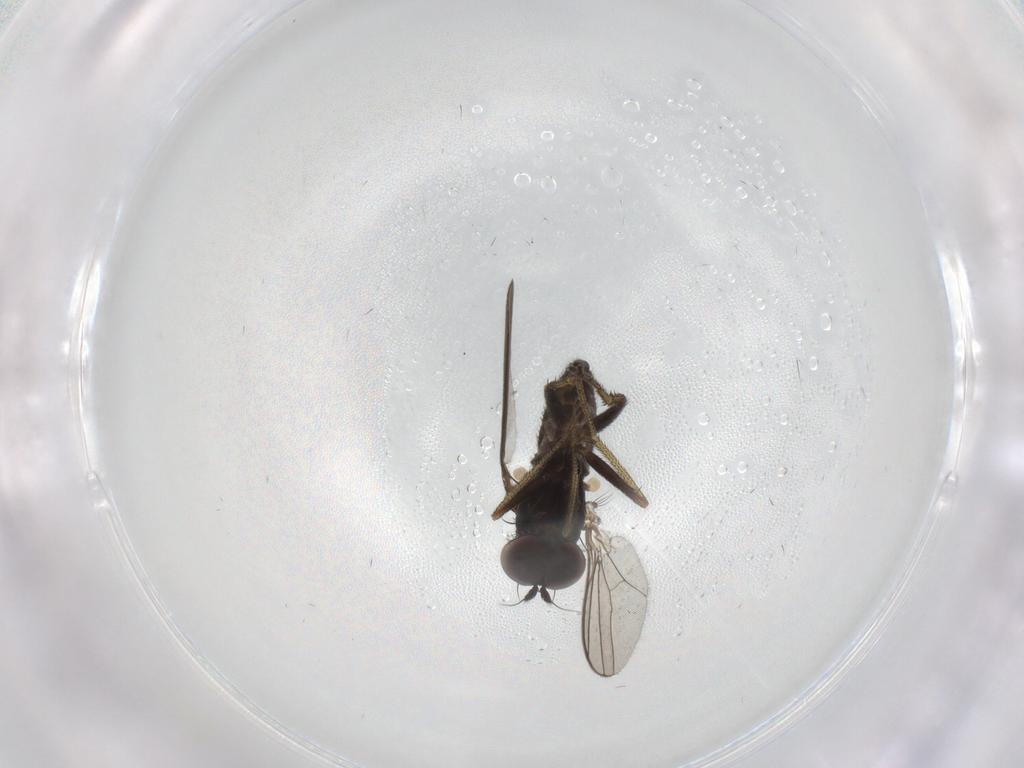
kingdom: Animalia
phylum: Arthropoda
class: Insecta
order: Diptera
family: Dolichopodidae
